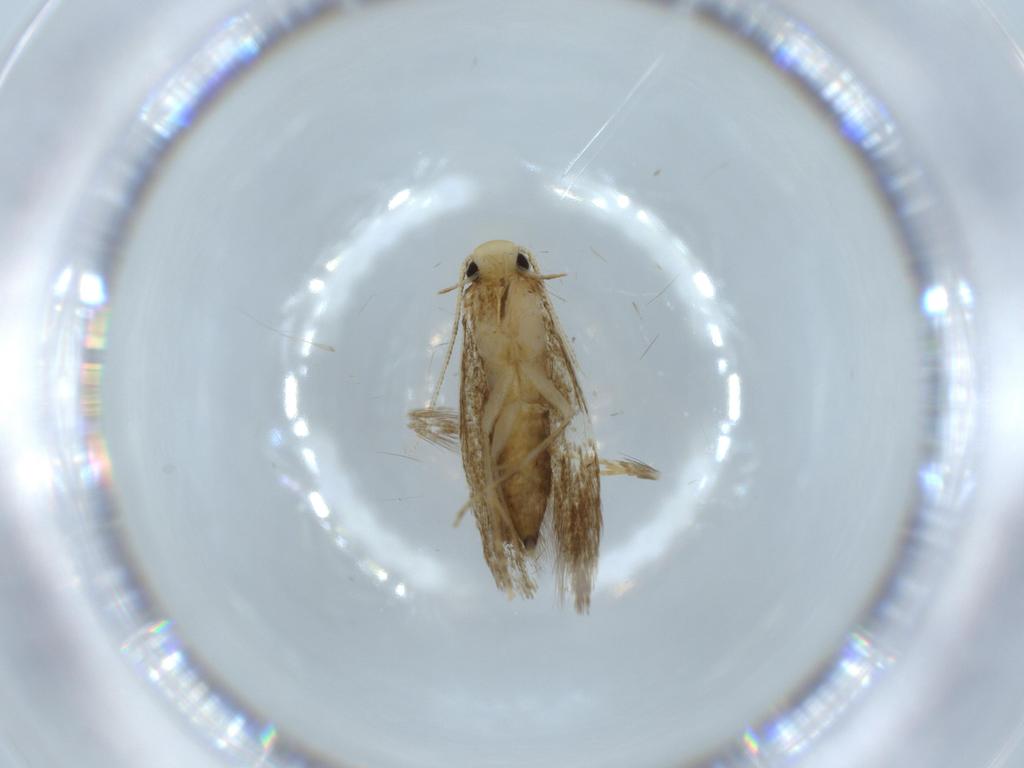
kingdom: Animalia
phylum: Arthropoda
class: Insecta
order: Lepidoptera
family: Tineidae
